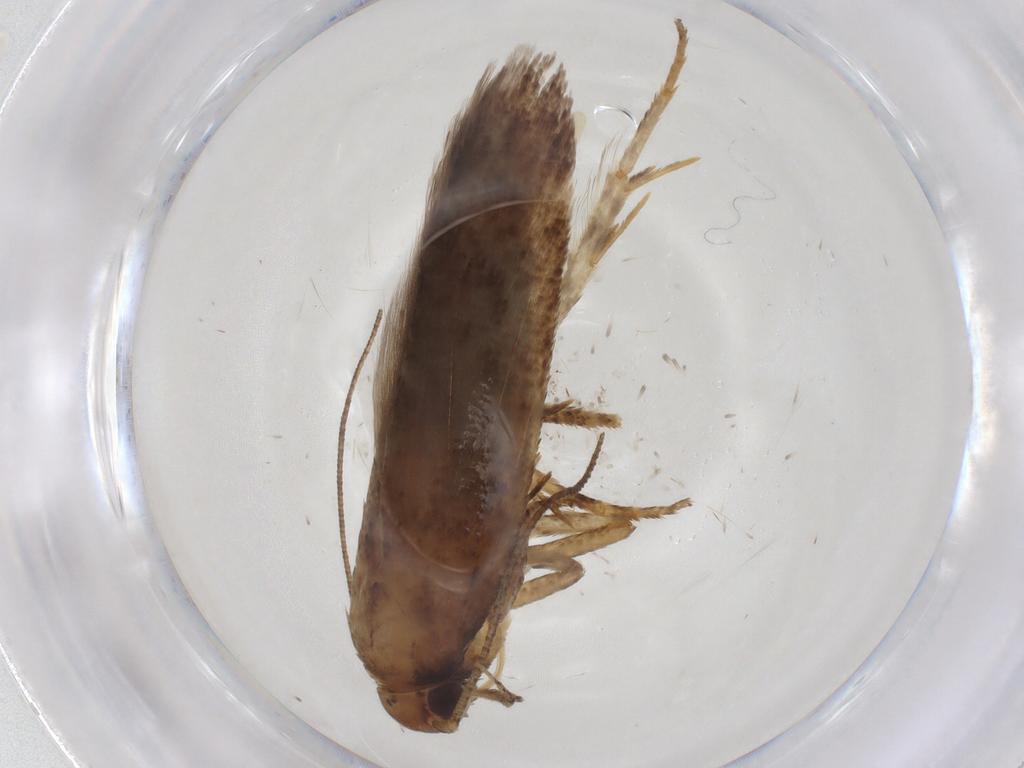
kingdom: Animalia
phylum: Arthropoda
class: Insecta
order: Lepidoptera
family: Gelechiidae
